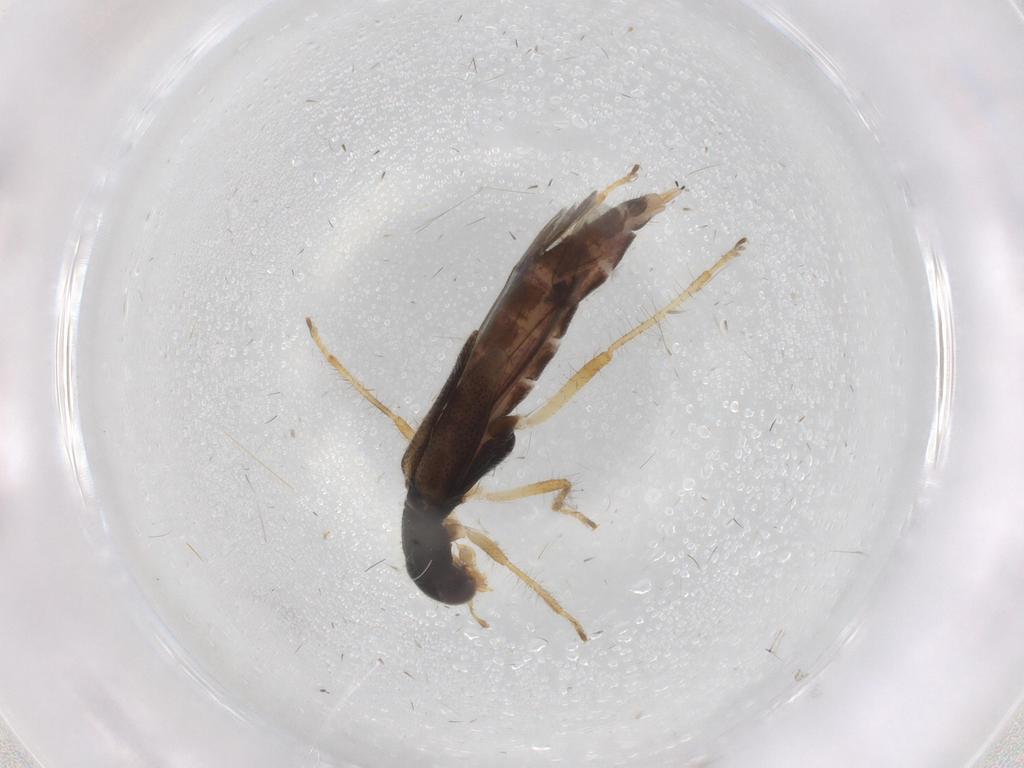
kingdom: Animalia
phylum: Arthropoda
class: Insecta
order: Coleoptera
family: Cleridae
